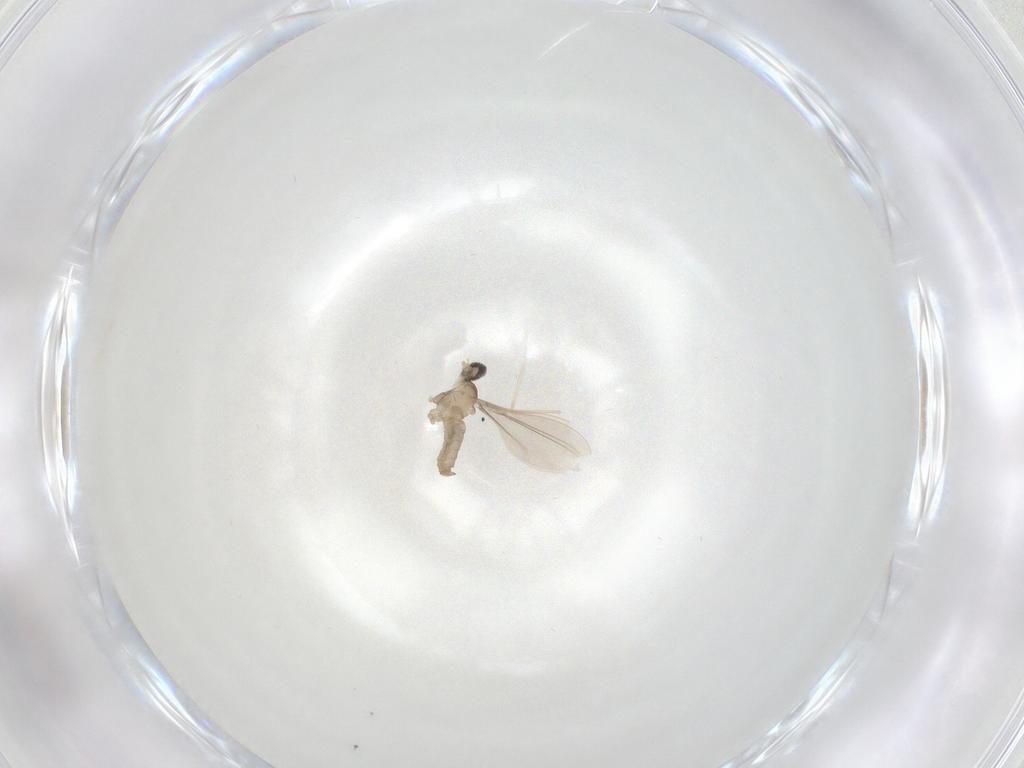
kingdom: Animalia
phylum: Arthropoda
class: Insecta
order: Diptera
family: Cecidomyiidae
